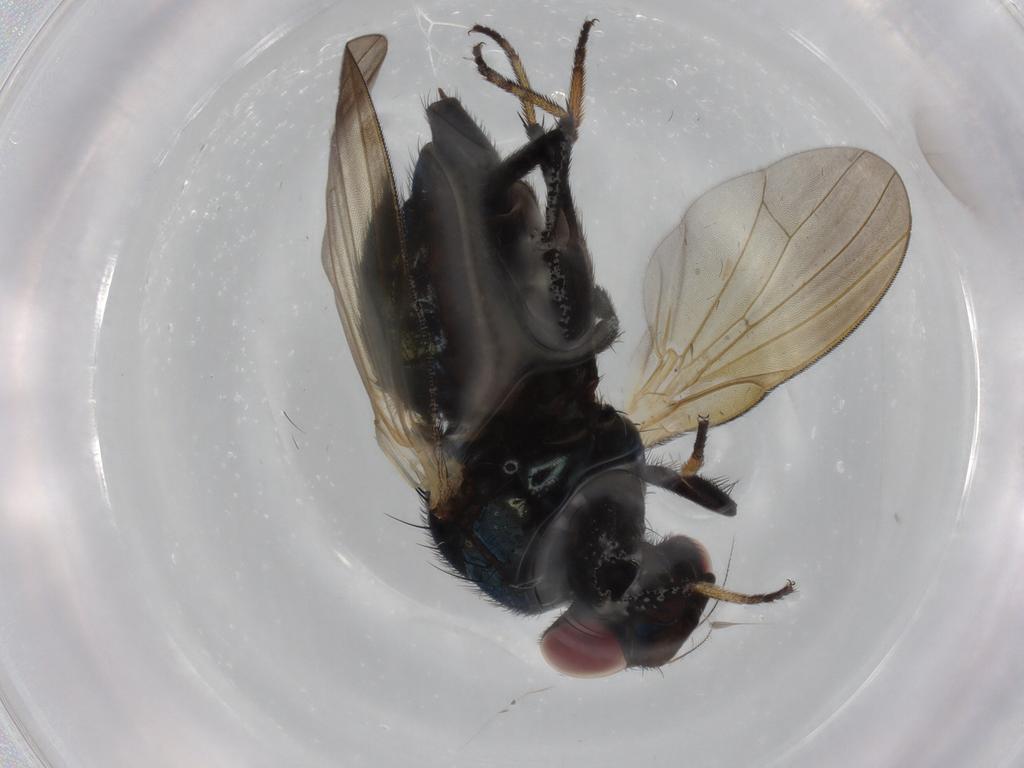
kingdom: Animalia
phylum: Arthropoda
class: Insecta
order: Diptera
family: Lonchaeidae
